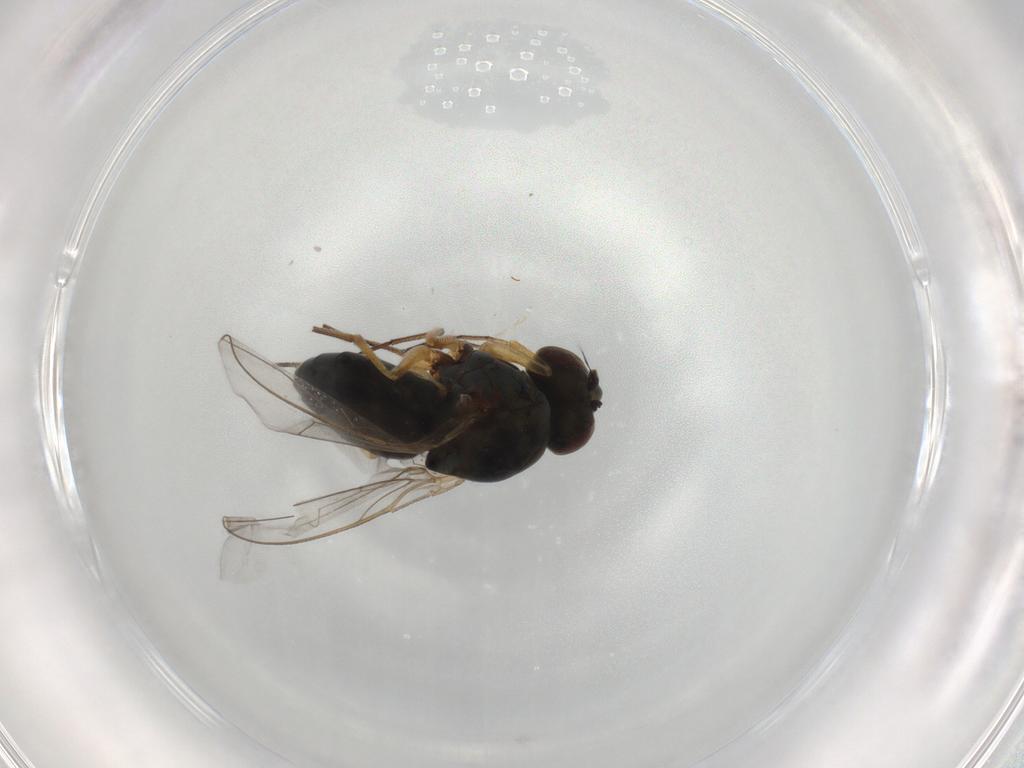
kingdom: Animalia
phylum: Arthropoda
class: Insecta
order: Diptera
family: Ephydridae
